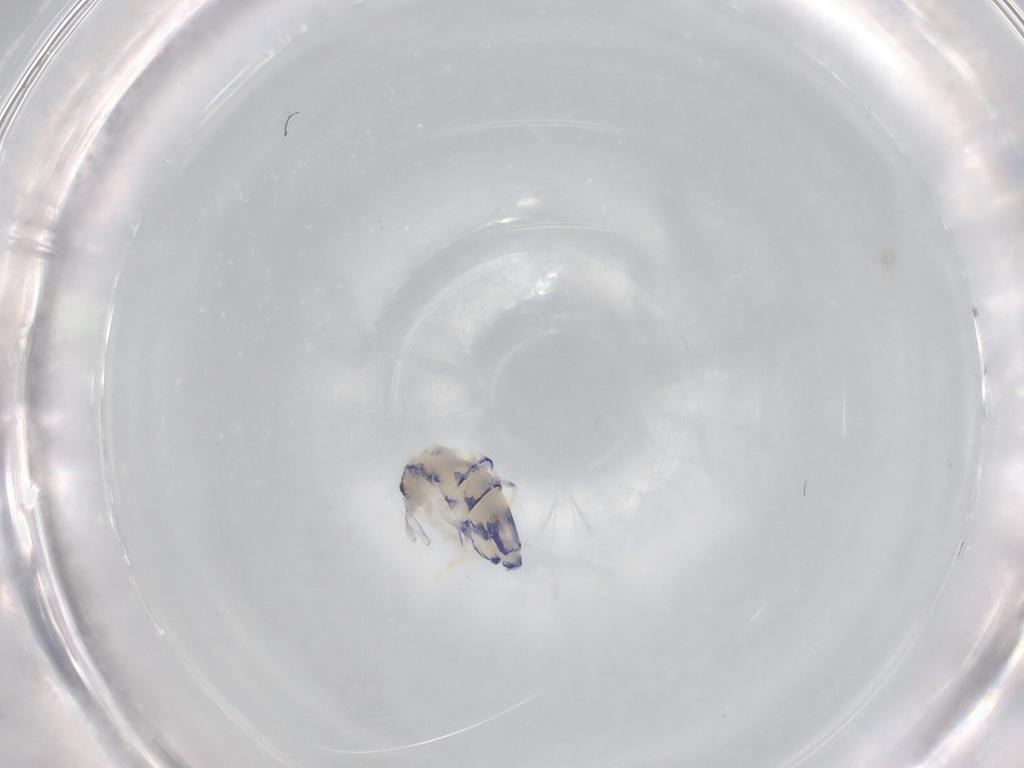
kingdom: Animalia
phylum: Arthropoda
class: Collembola
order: Entomobryomorpha
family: Entomobryidae
